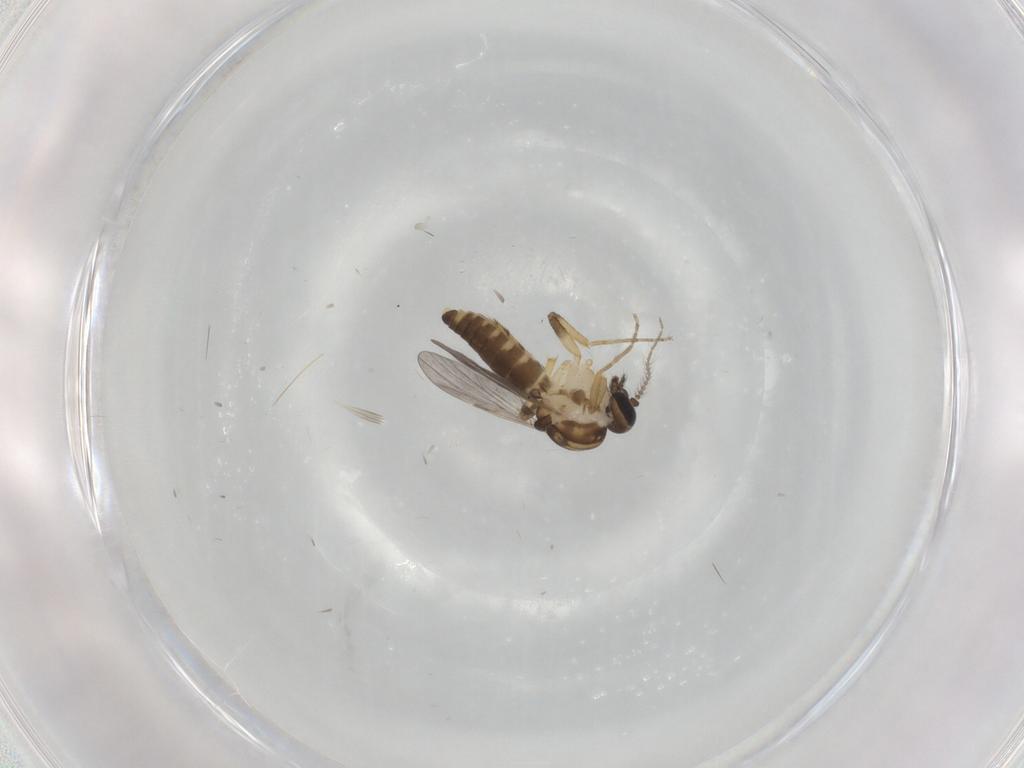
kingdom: Animalia
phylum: Arthropoda
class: Insecta
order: Diptera
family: Ceratopogonidae
